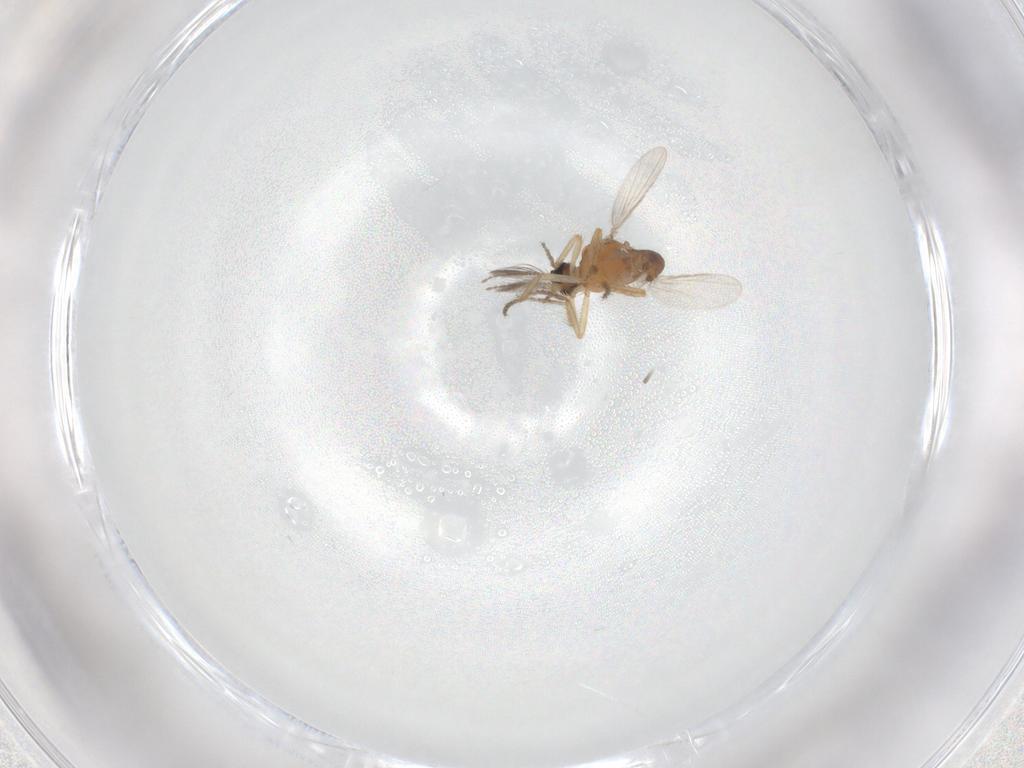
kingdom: Animalia
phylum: Arthropoda
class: Insecta
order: Diptera
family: Ceratopogonidae
